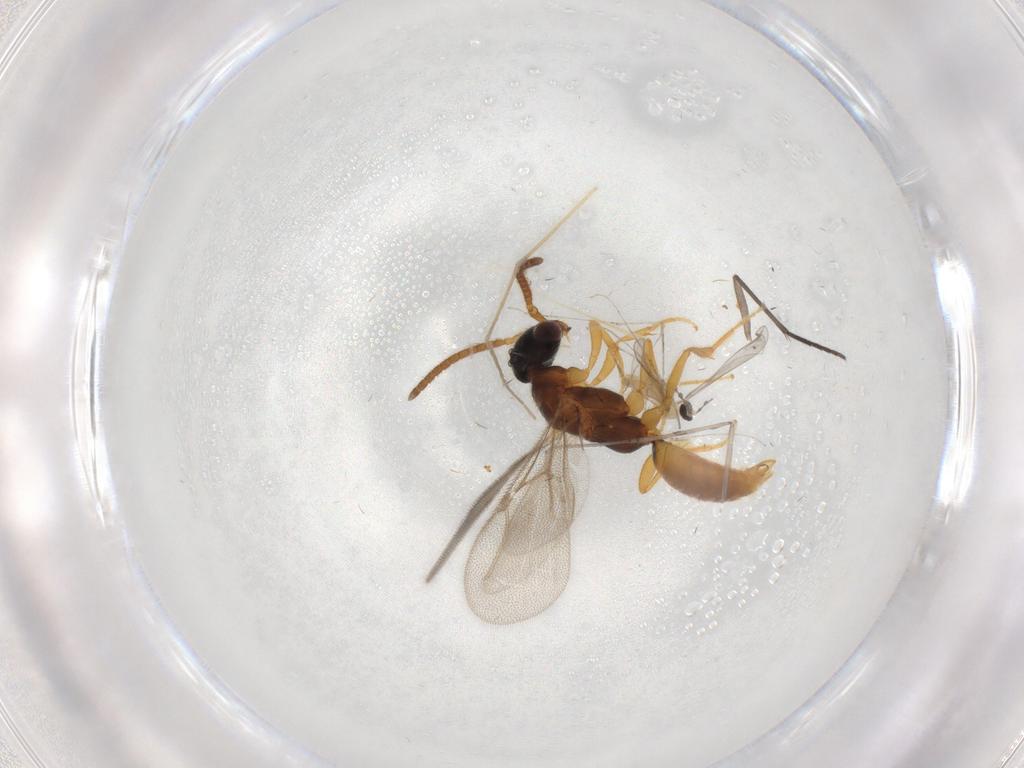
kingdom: Animalia
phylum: Arthropoda
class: Insecta
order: Diptera
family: Cecidomyiidae
